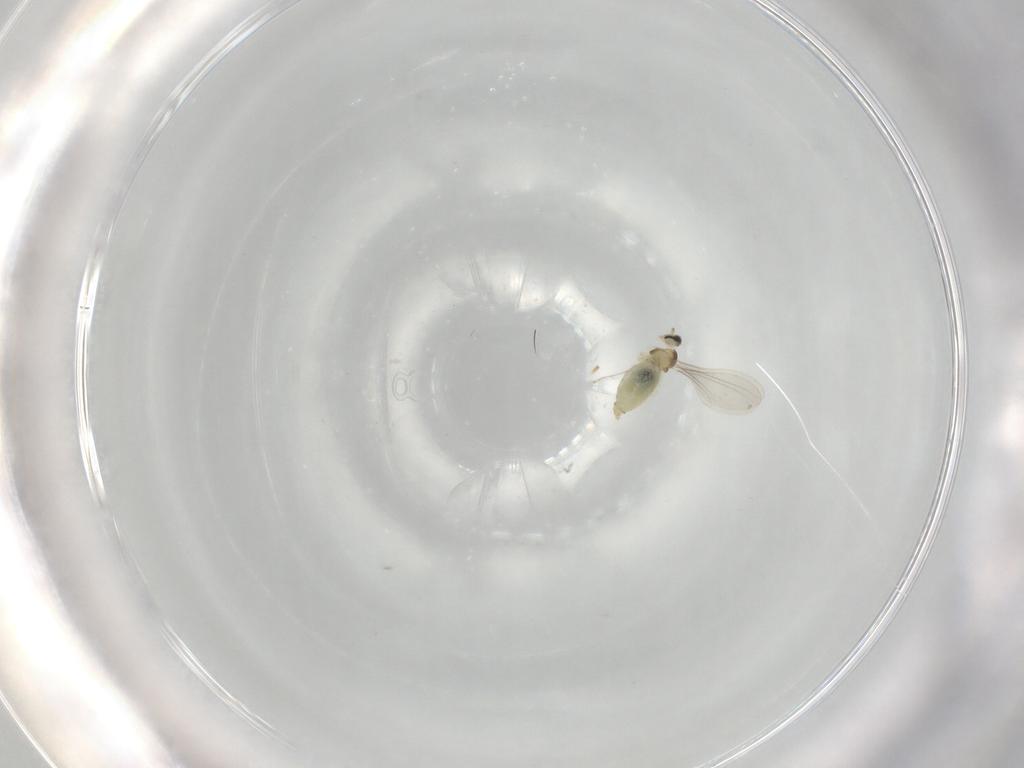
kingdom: Animalia
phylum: Arthropoda
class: Insecta
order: Diptera
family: Cecidomyiidae
